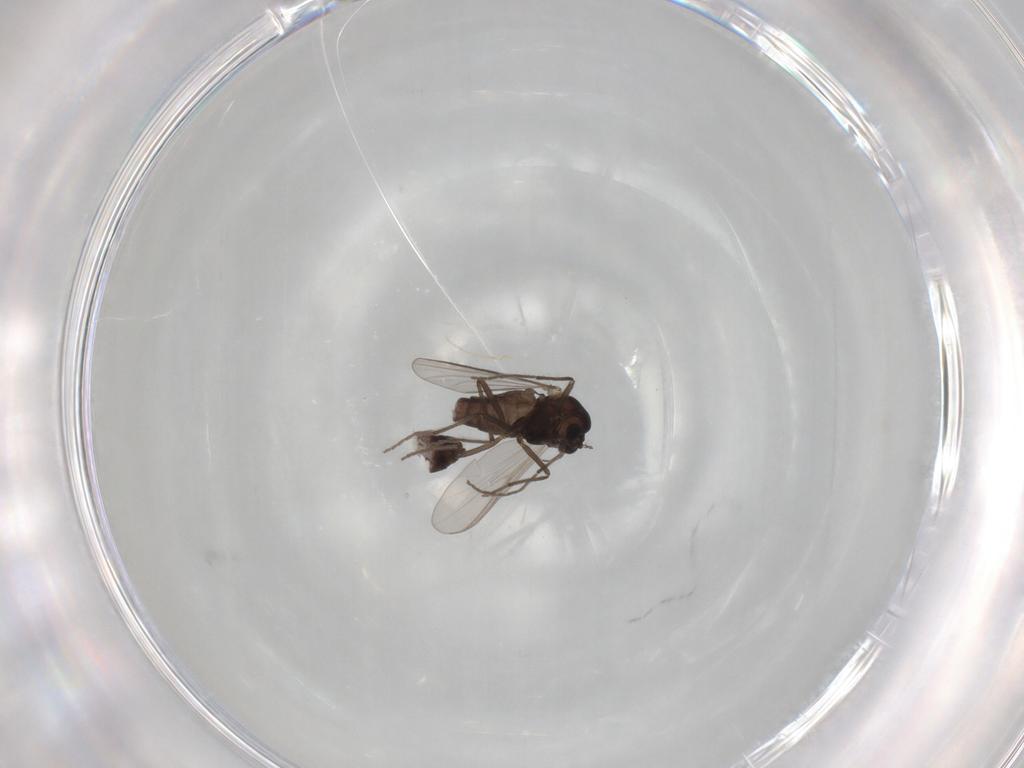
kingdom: Animalia
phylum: Arthropoda
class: Insecta
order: Diptera
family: Chironomidae
